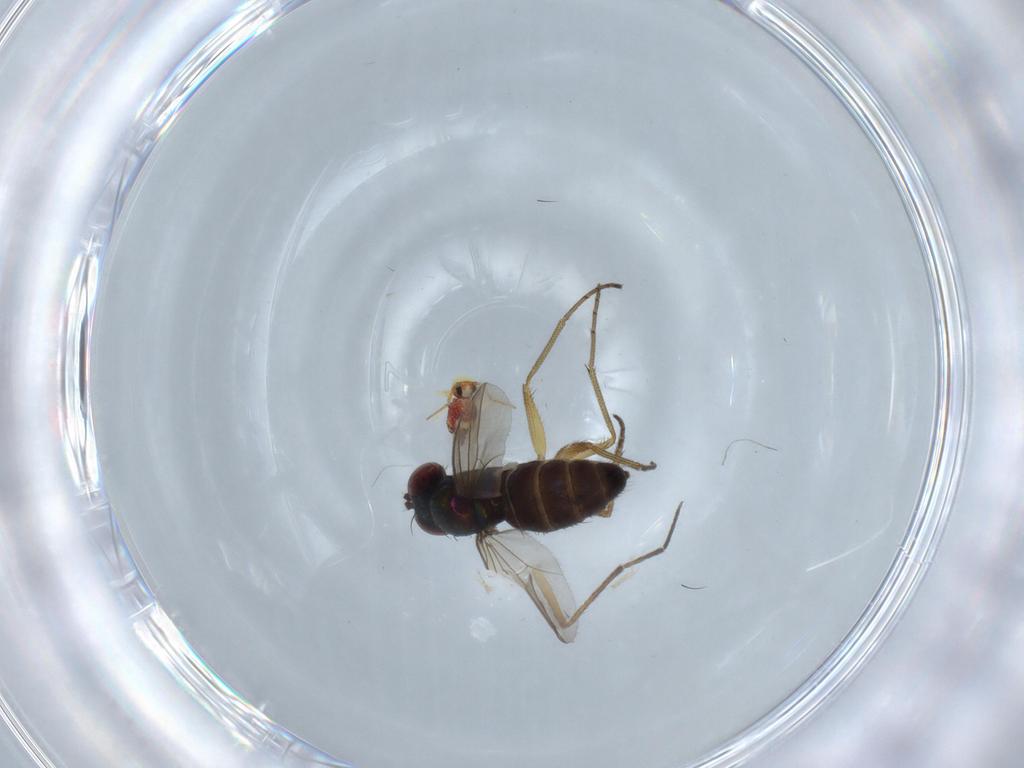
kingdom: Animalia
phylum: Arthropoda
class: Insecta
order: Diptera
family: Dolichopodidae
